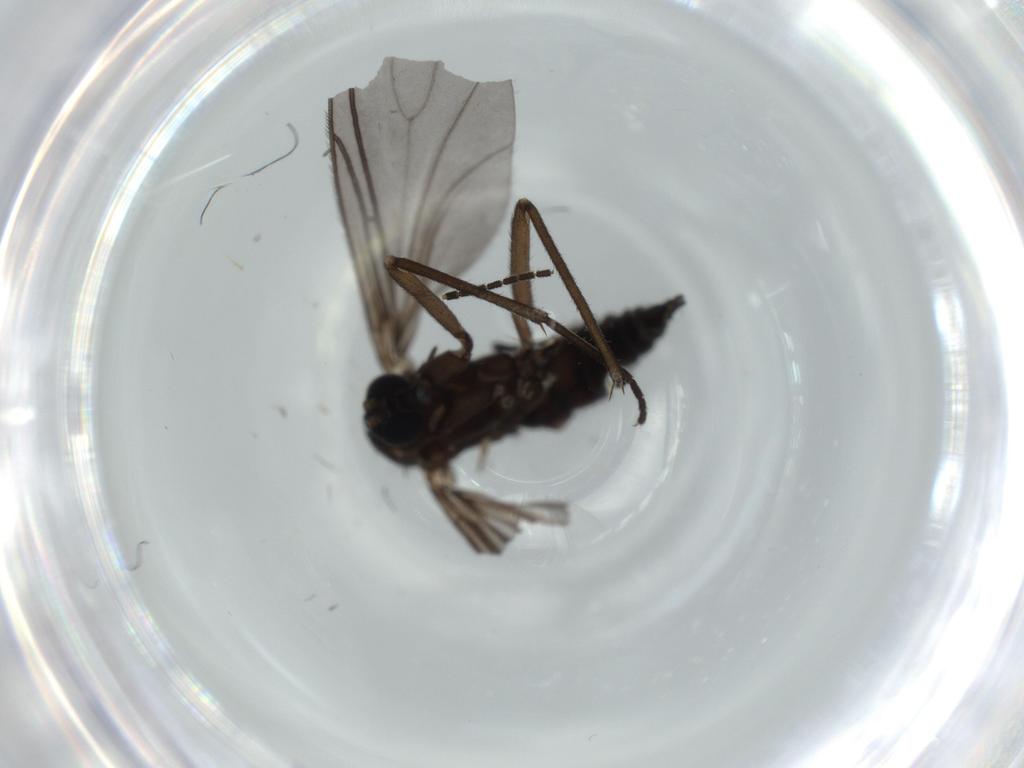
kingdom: Animalia
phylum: Arthropoda
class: Insecta
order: Diptera
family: Sciaridae
